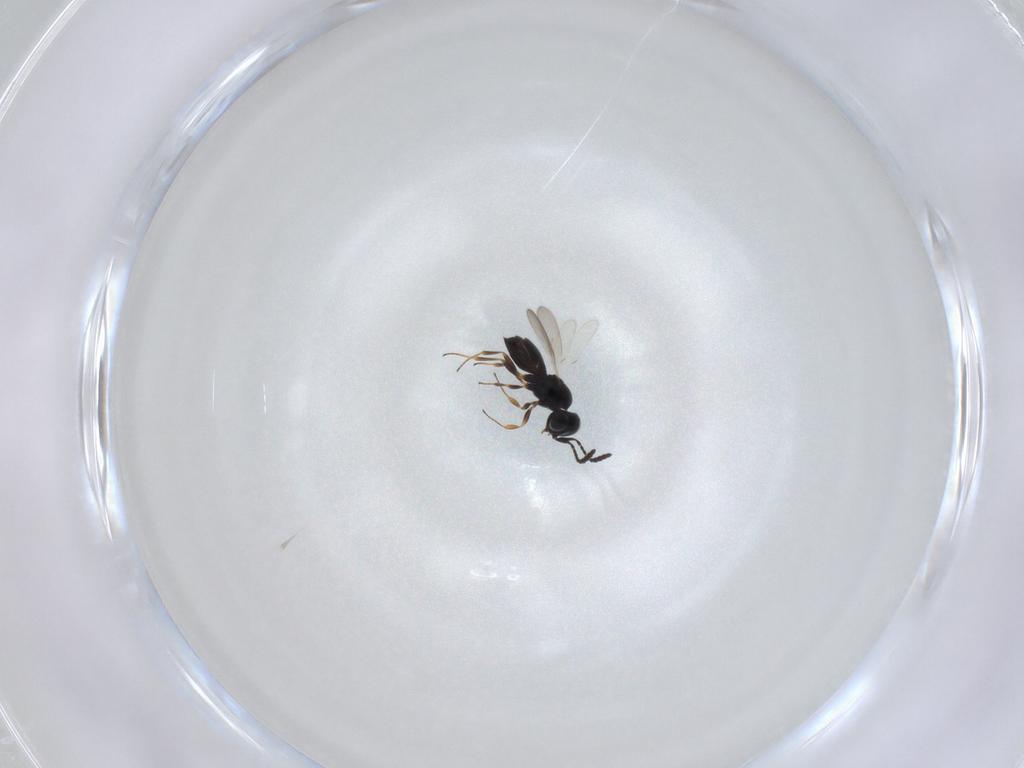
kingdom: Animalia
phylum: Arthropoda
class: Insecta
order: Hymenoptera
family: Scelionidae
